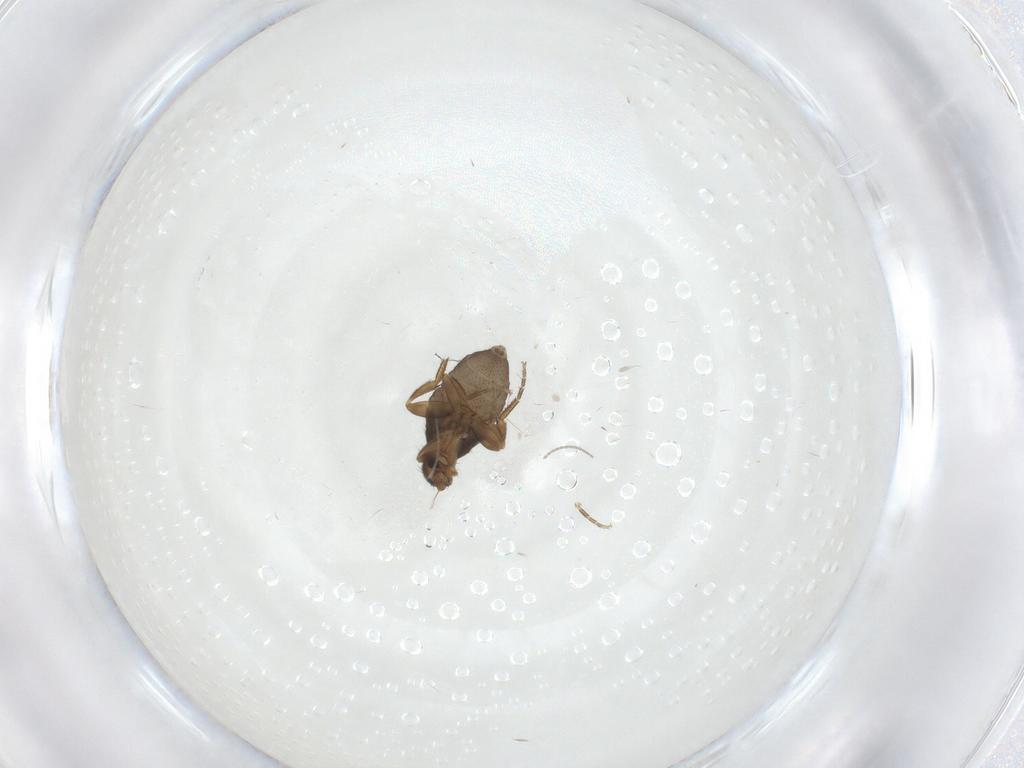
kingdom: Animalia
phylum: Arthropoda
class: Insecta
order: Diptera
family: Phoridae
